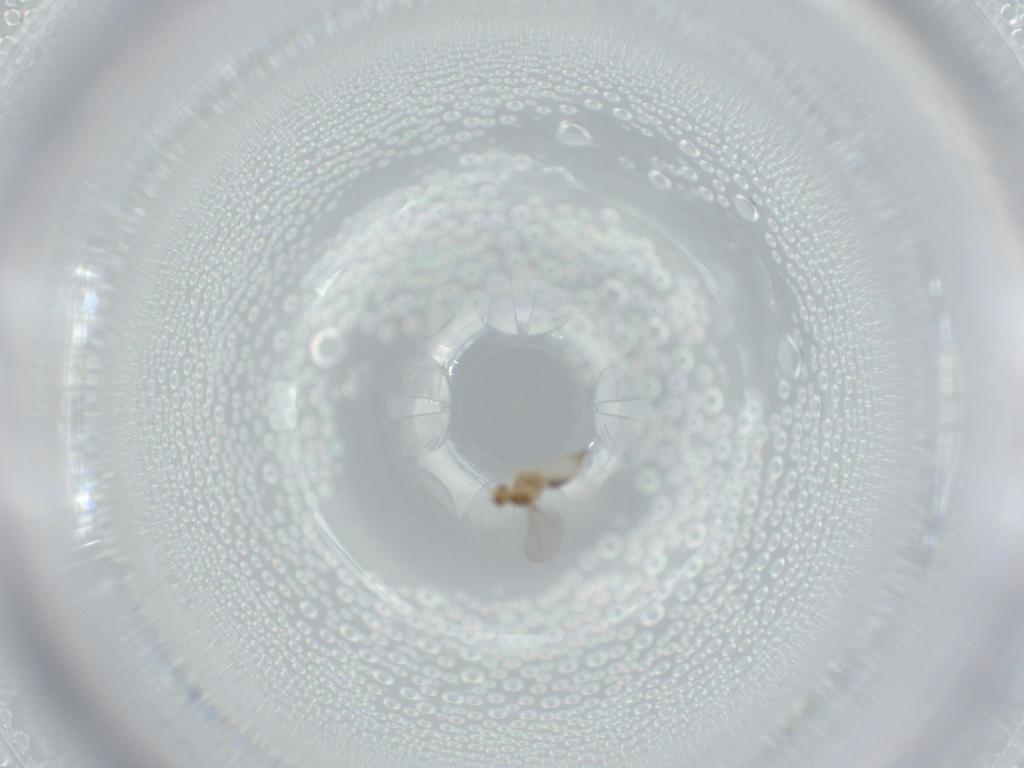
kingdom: Animalia
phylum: Arthropoda
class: Insecta
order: Diptera
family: Cecidomyiidae
